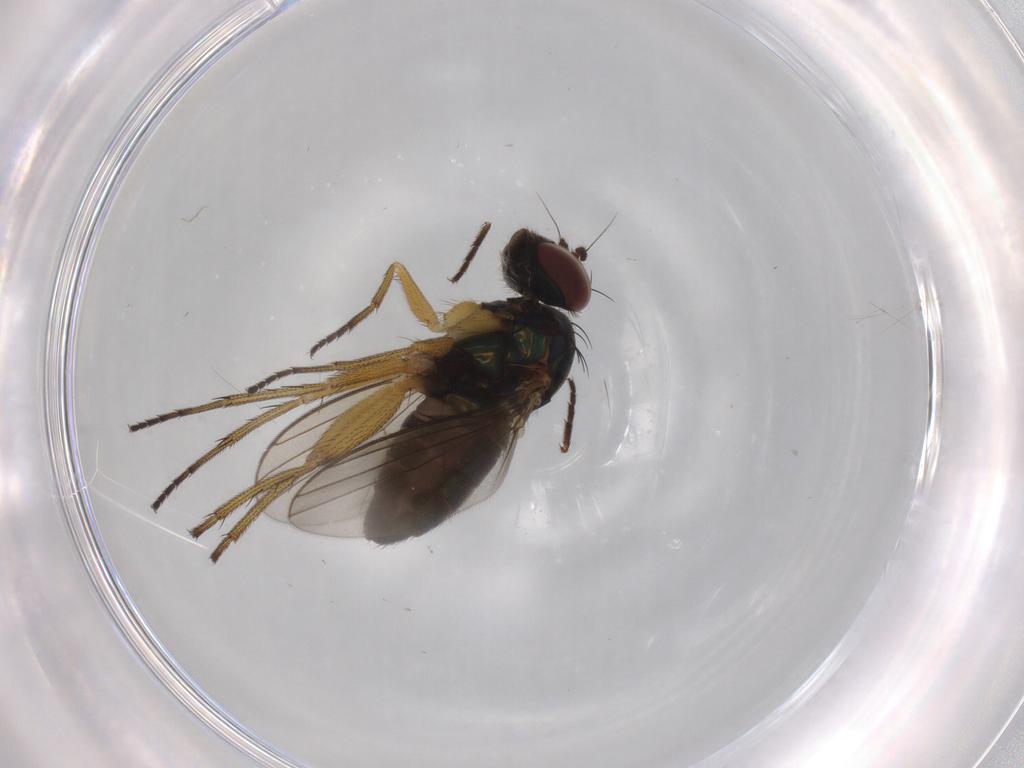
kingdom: Animalia
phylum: Arthropoda
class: Insecta
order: Diptera
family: Dolichopodidae
